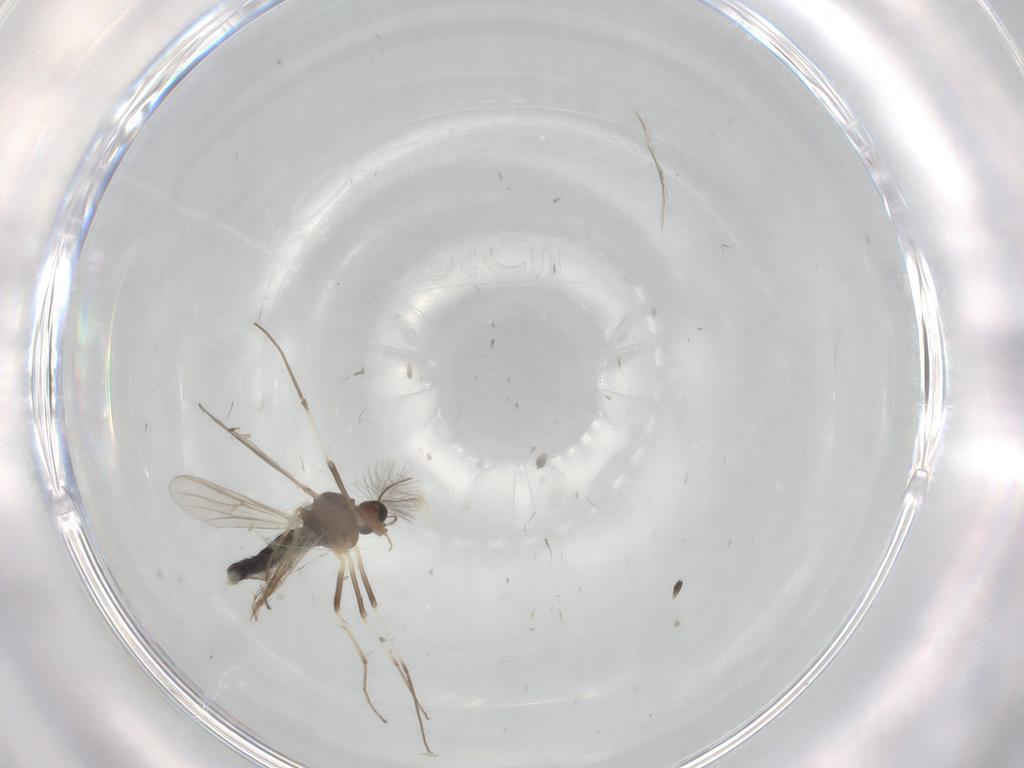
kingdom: Animalia
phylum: Arthropoda
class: Insecta
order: Diptera
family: Chironomidae
